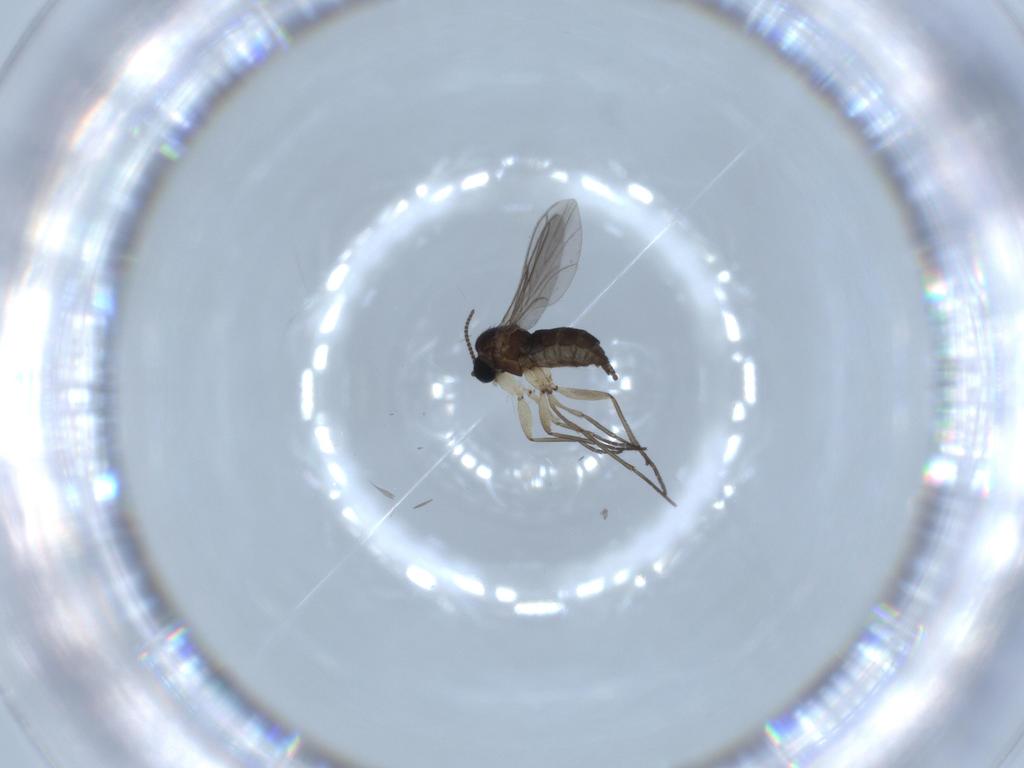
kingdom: Animalia
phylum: Arthropoda
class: Insecta
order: Diptera
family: Sciaridae
